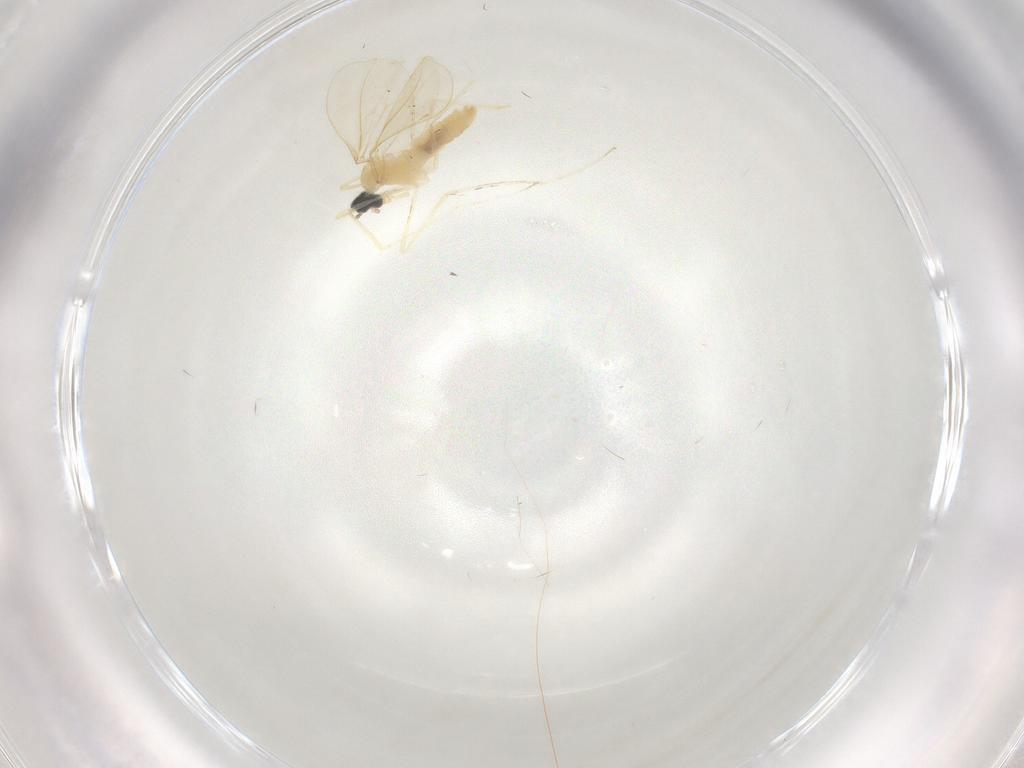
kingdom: Animalia
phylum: Arthropoda
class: Insecta
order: Diptera
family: Cecidomyiidae
